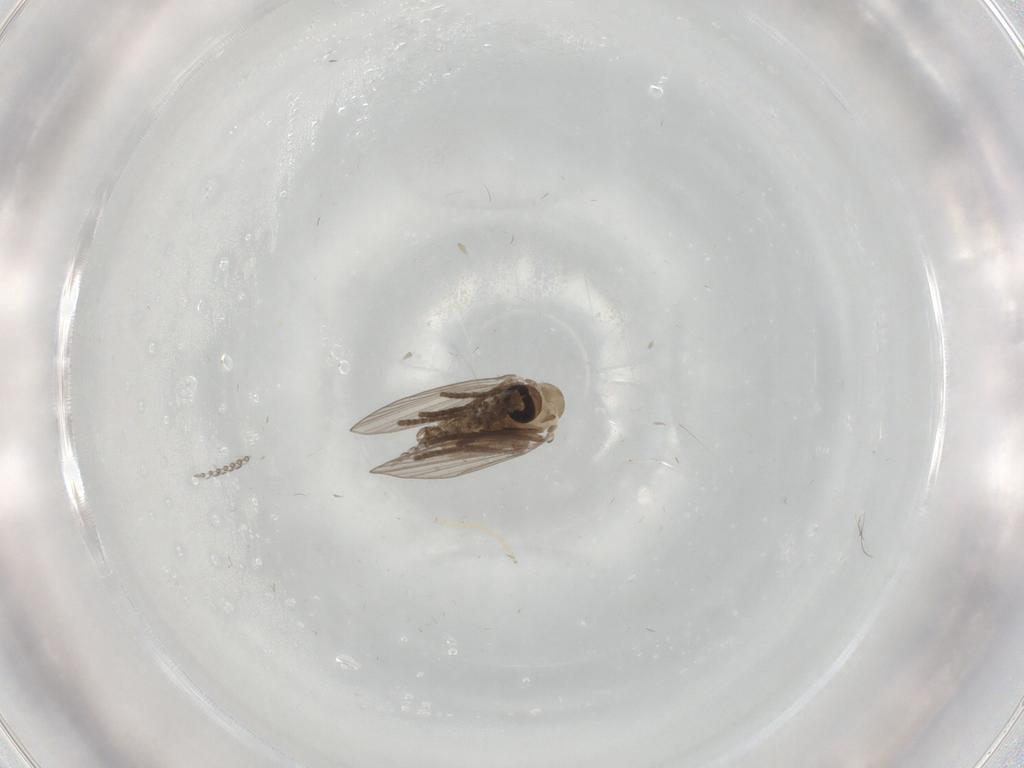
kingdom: Animalia
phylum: Arthropoda
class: Insecta
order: Diptera
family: Psychodidae
